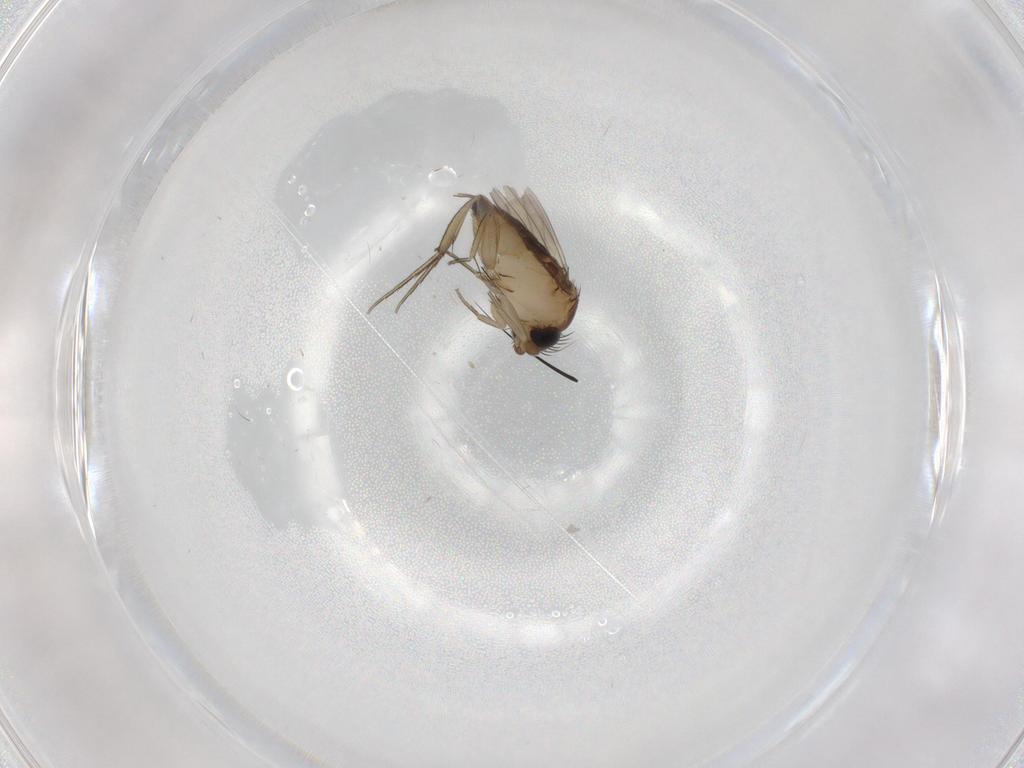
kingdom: Animalia
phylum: Arthropoda
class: Insecta
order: Diptera
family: Phoridae
